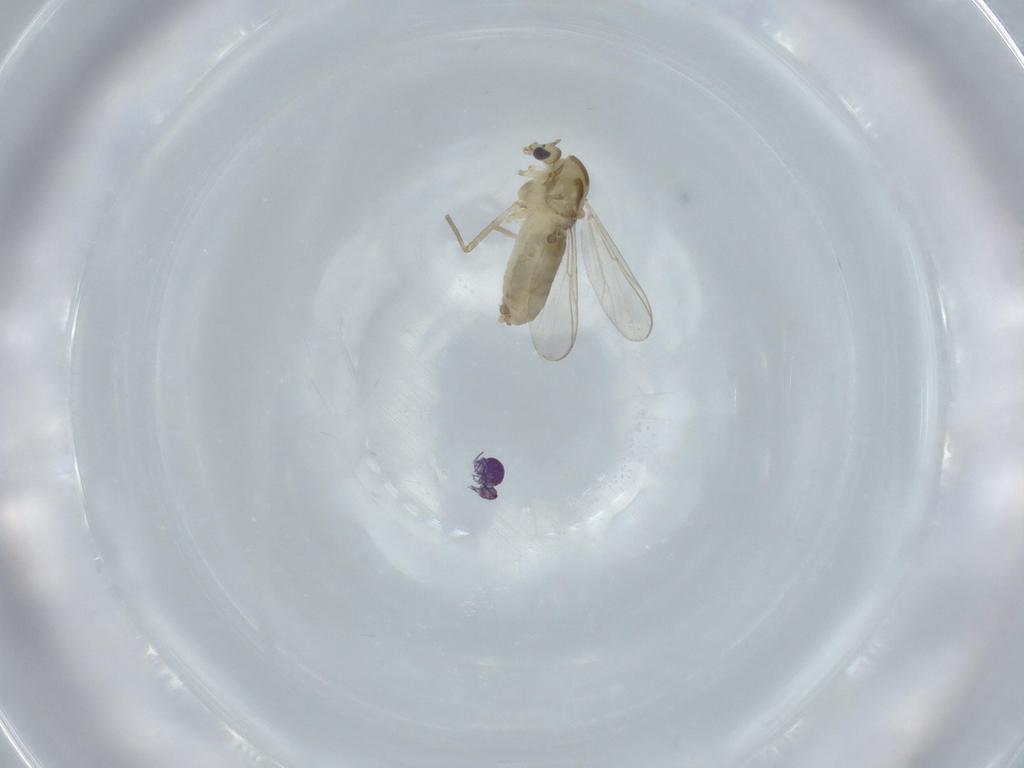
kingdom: Animalia
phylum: Arthropoda
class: Insecta
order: Diptera
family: Chironomidae
